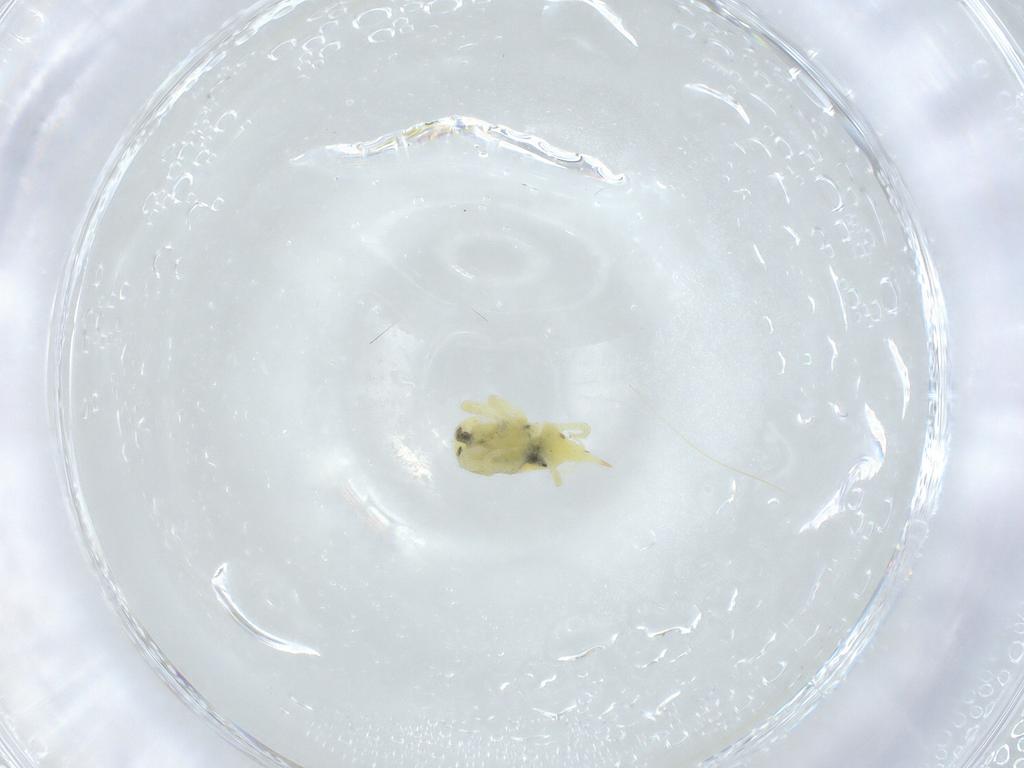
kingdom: Animalia
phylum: Arthropoda
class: Arachnida
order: Trombidiformes
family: Bdellidae
